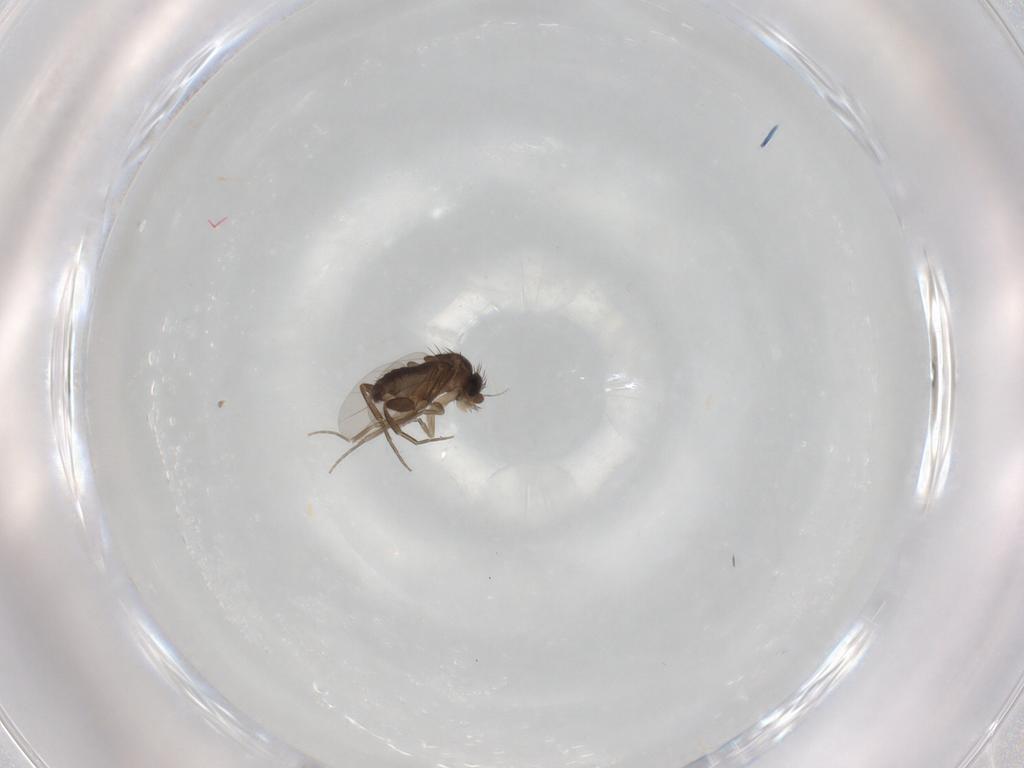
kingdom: Animalia
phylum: Arthropoda
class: Insecta
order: Diptera
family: Phoridae
